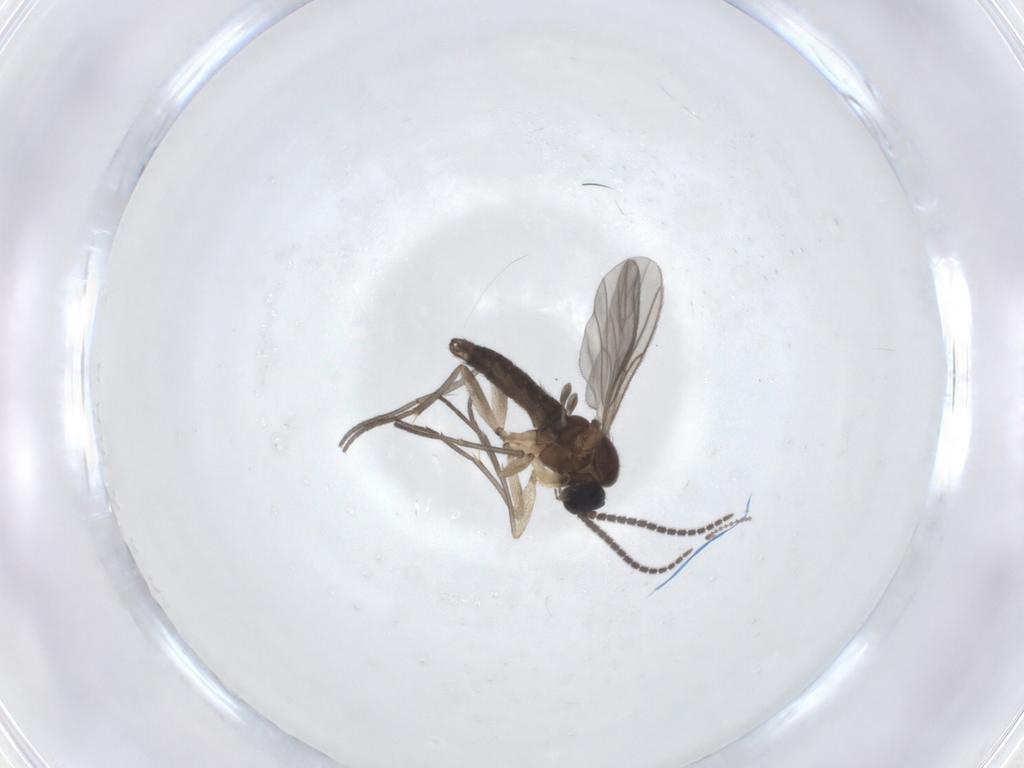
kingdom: Animalia
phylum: Arthropoda
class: Insecta
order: Diptera
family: Sciaridae
